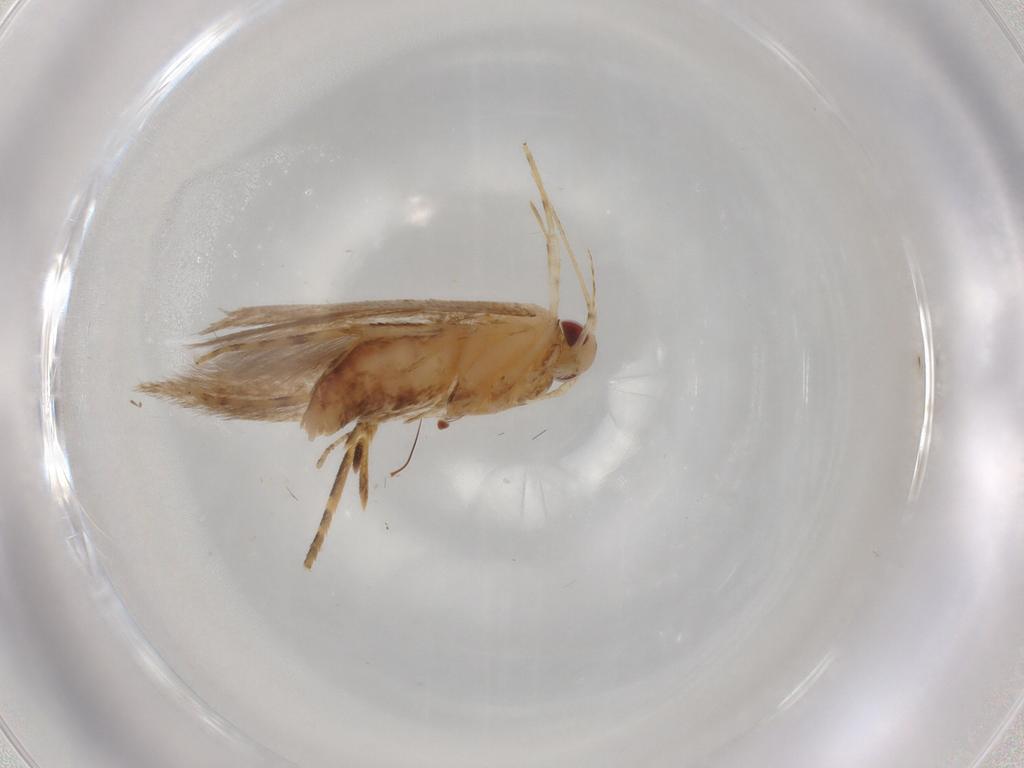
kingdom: Animalia
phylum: Arthropoda
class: Insecta
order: Lepidoptera
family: Cosmopterigidae
